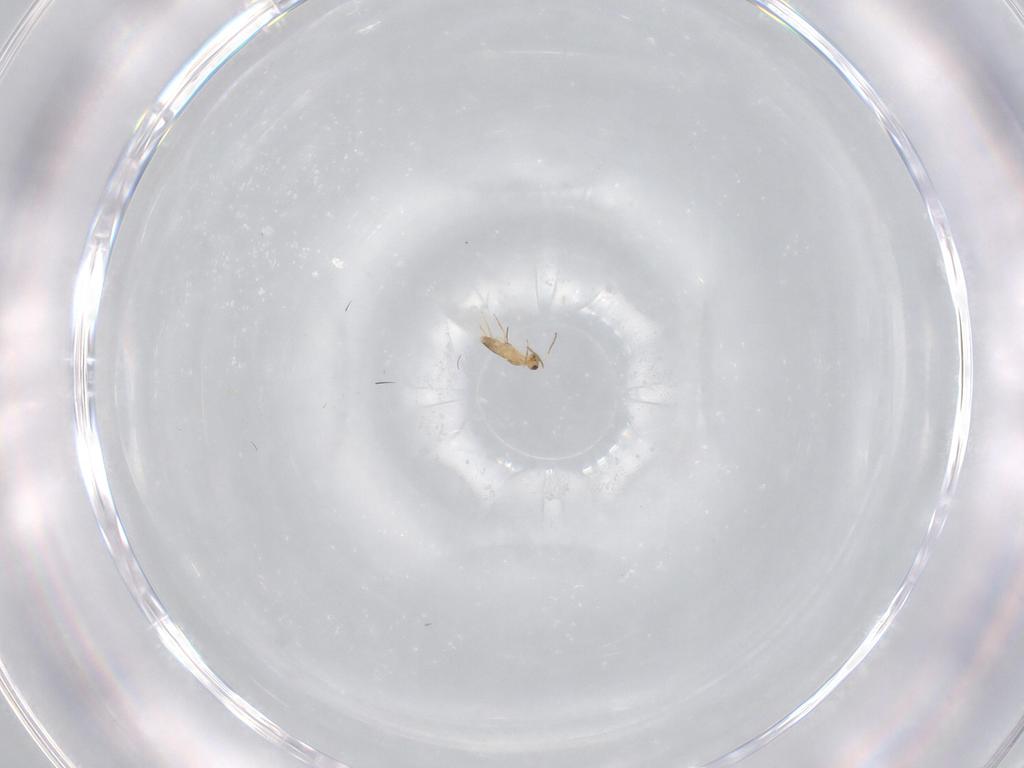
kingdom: Animalia
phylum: Arthropoda
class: Insecta
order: Hymenoptera
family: Mymaridae
